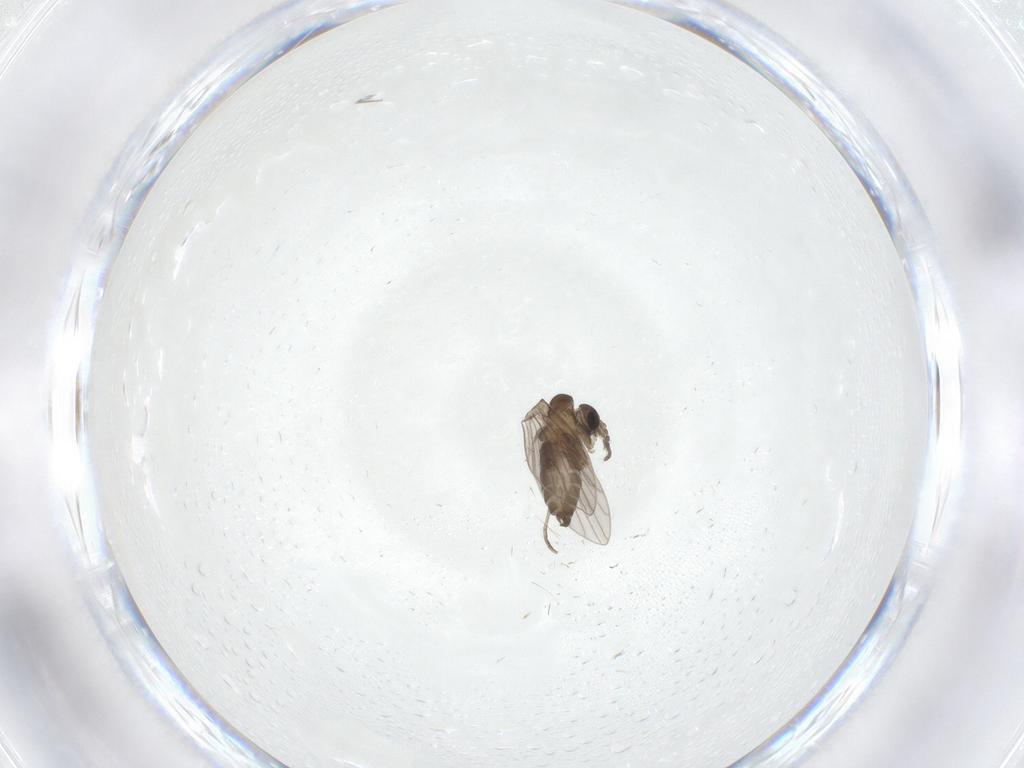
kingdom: Animalia
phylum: Arthropoda
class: Insecta
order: Diptera
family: Psychodidae
